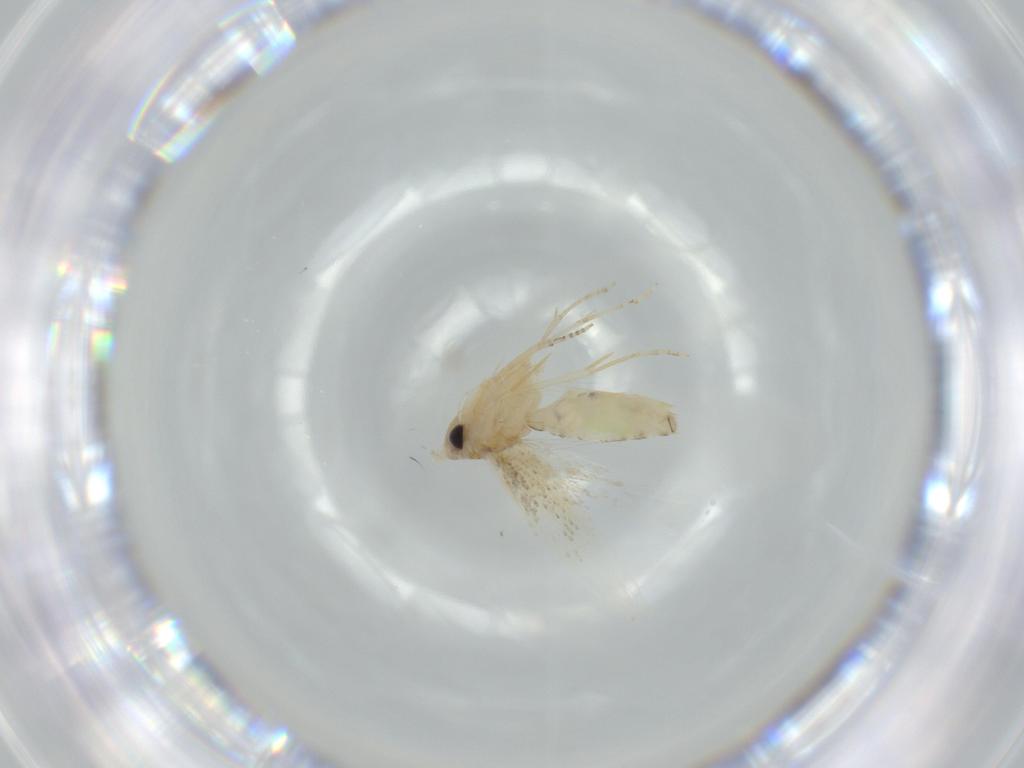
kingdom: Animalia
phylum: Arthropoda
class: Insecta
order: Lepidoptera
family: Bucculatricidae
